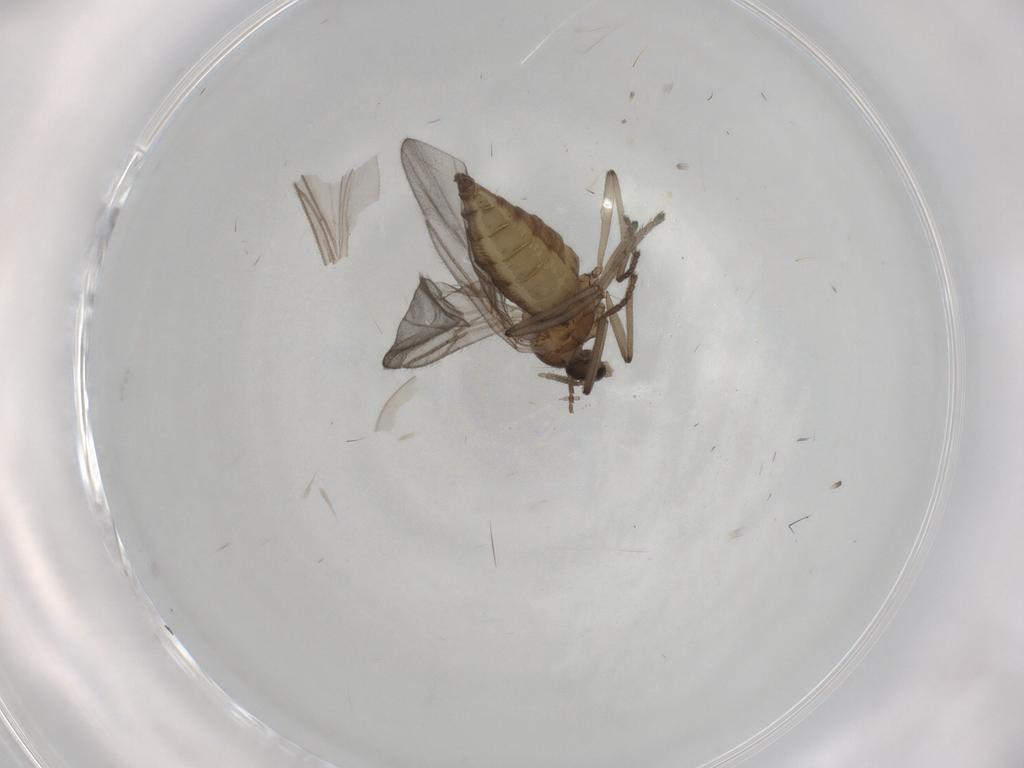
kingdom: Animalia
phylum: Arthropoda
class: Insecta
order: Diptera
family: Cecidomyiidae
